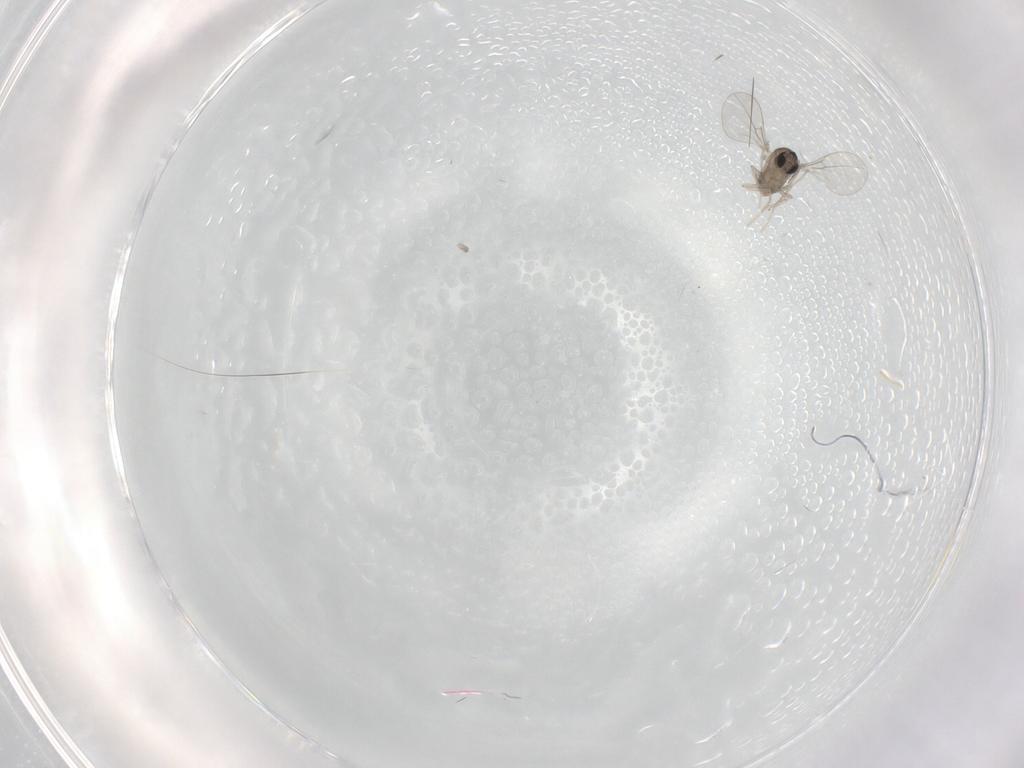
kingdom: Animalia
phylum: Arthropoda
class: Insecta
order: Diptera
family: Cecidomyiidae
